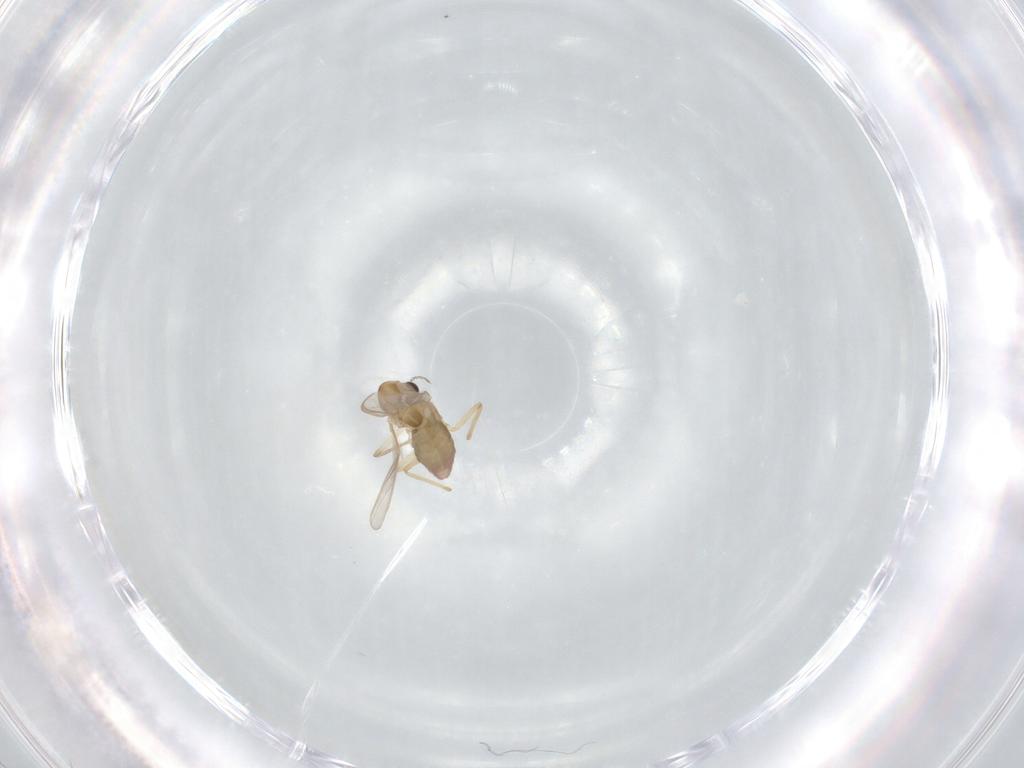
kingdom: Animalia
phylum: Arthropoda
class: Insecta
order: Diptera
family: Chironomidae
